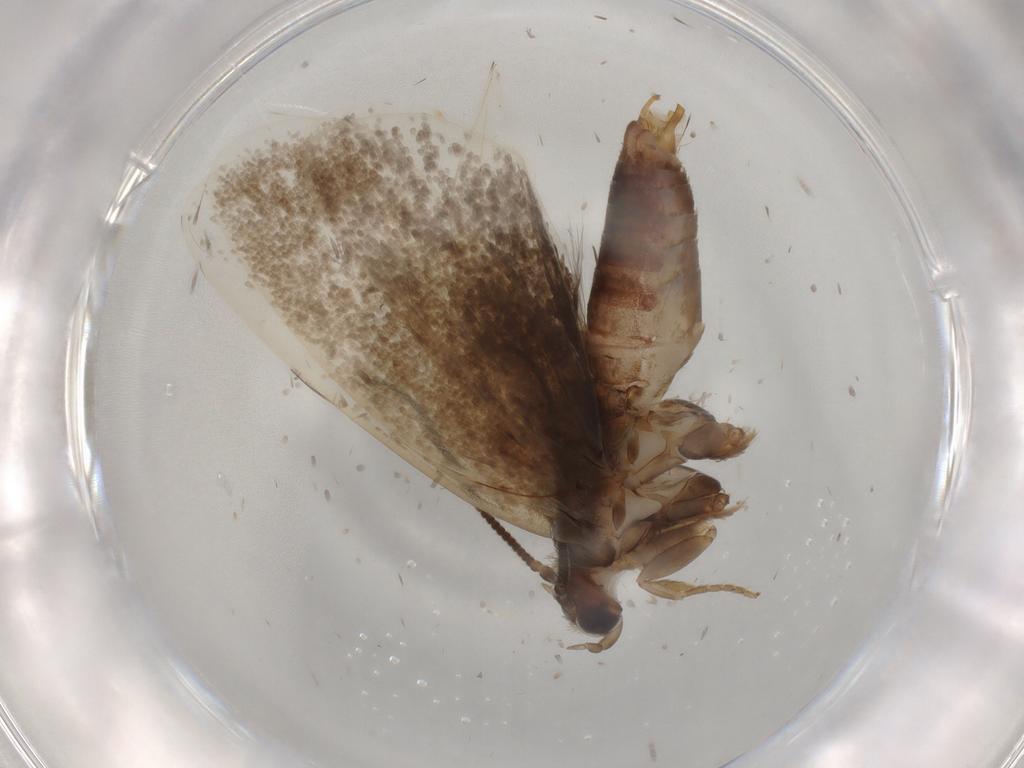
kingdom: Animalia
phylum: Arthropoda
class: Insecta
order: Lepidoptera
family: Tineidae
